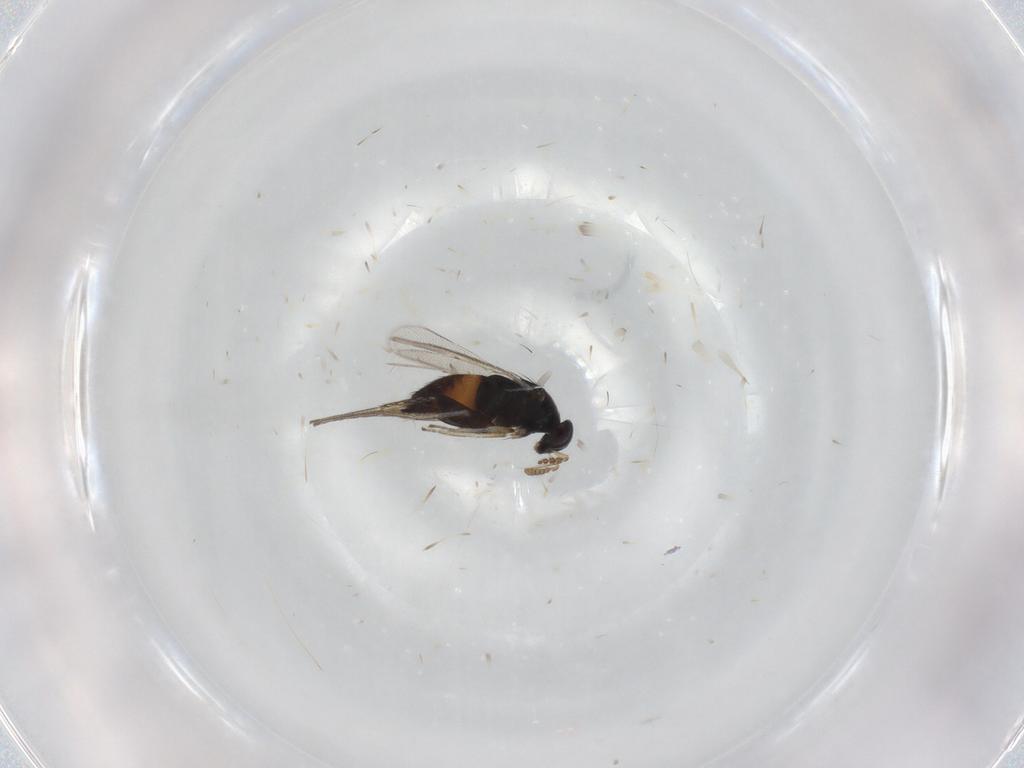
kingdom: Animalia
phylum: Arthropoda
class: Insecta
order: Hymenoptera
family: Eulophidae
